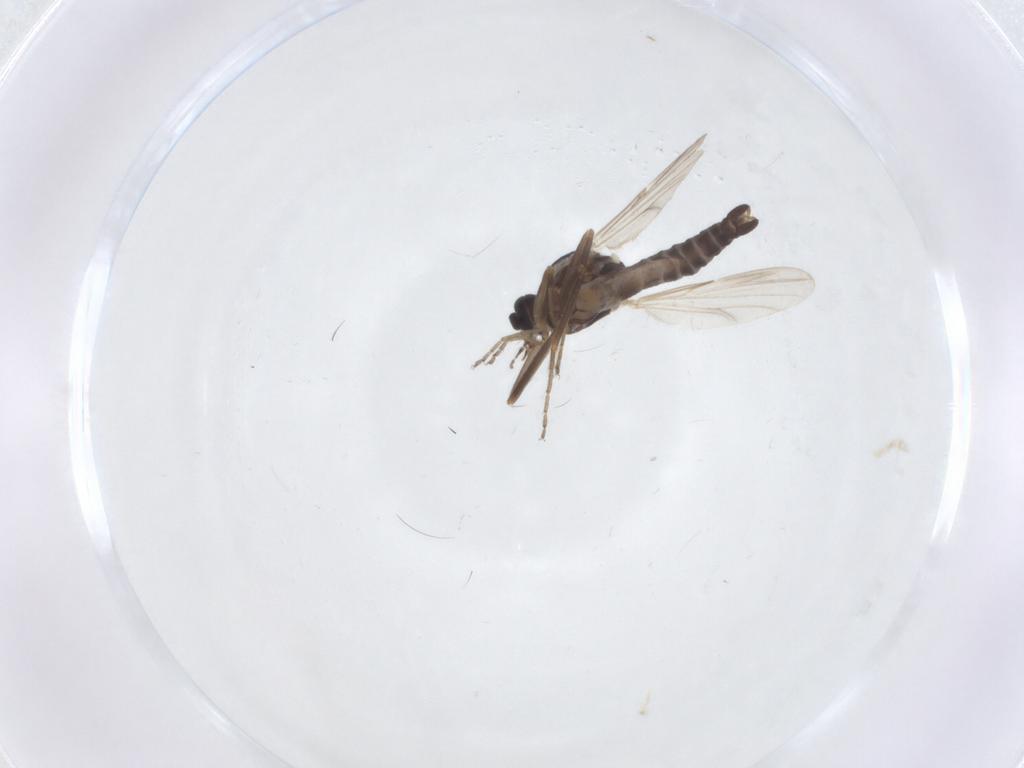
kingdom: Animalia
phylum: Arthropoda
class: Insecta
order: Diptera
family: Ceratopogonidae
